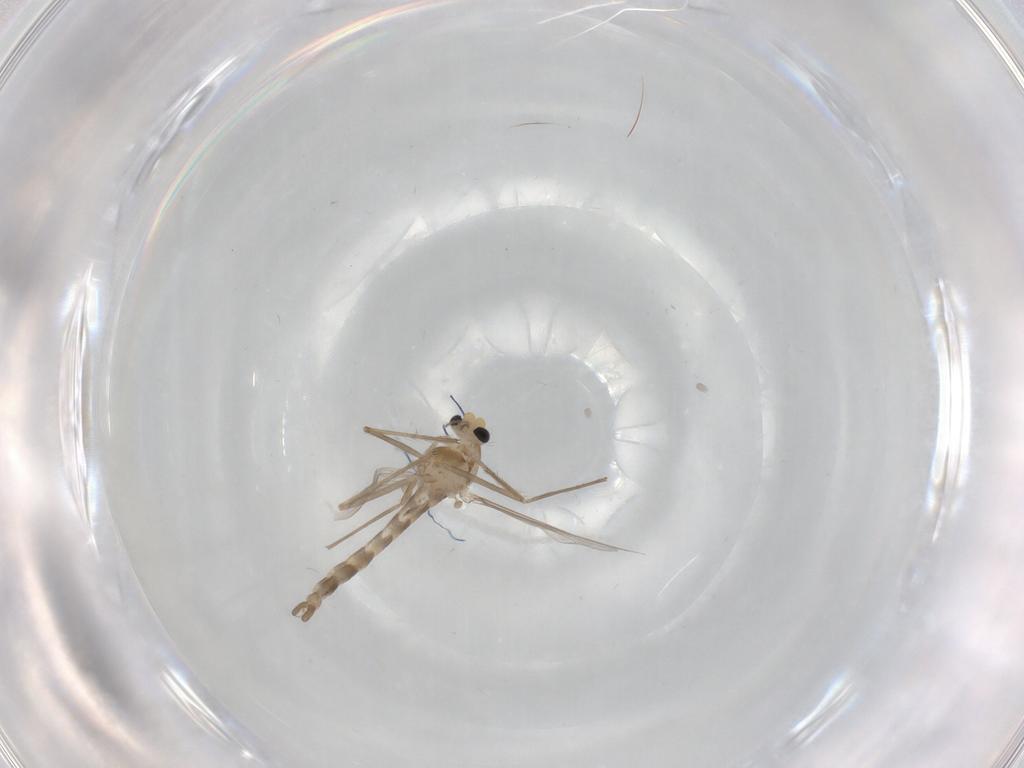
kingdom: Animalia
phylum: Arthropoda
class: Insecta
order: Diptera
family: Chironomidae
